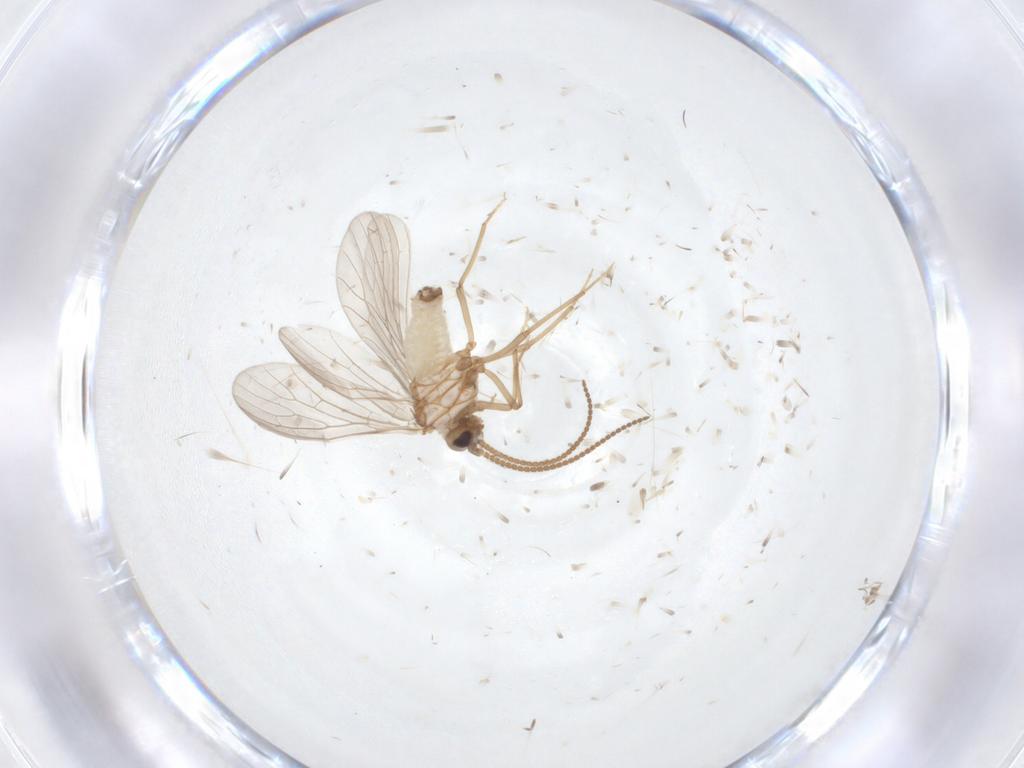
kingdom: Animalia
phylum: Arthropoda
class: Insecta
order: Neuroptera
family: Coniopterygidae
